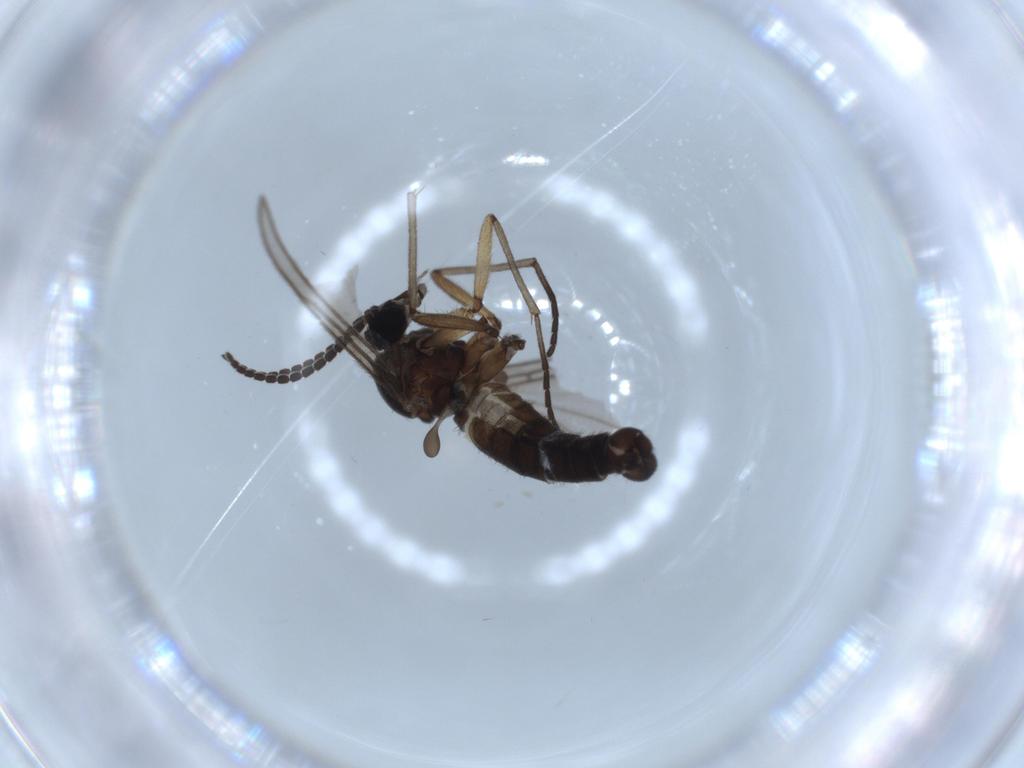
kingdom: Animalia
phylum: Arthropoda
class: Insecta
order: Diptera
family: Sciaridae
